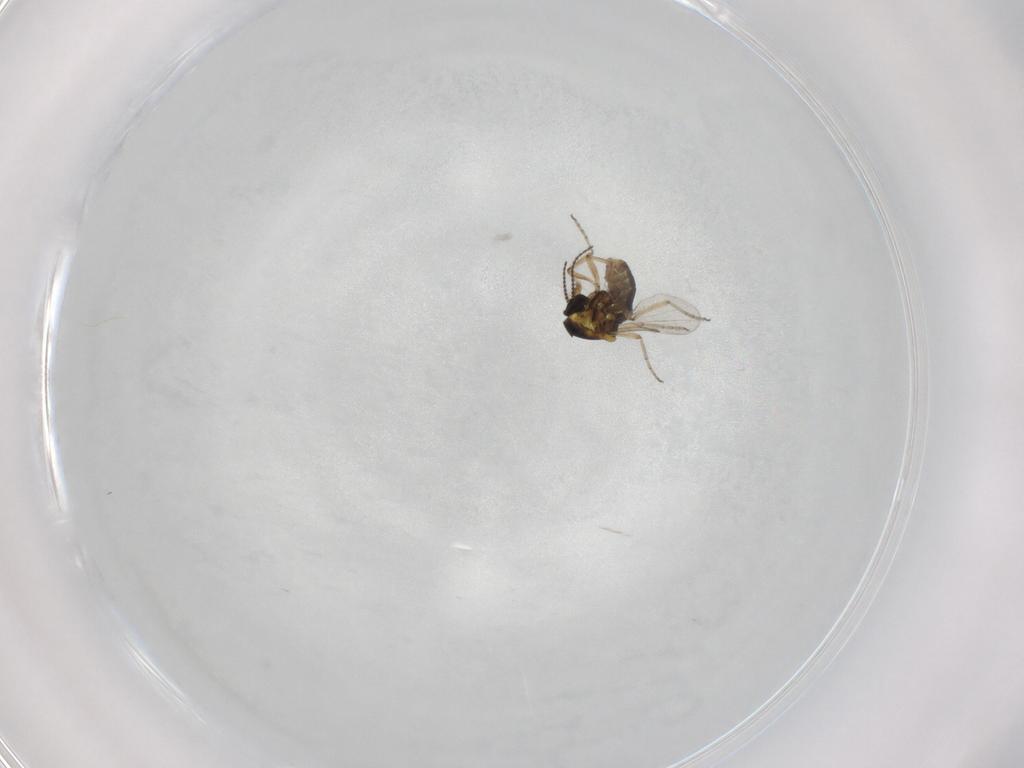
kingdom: Animalia
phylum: Arthropoda
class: Insecta
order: Diptera
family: Ceratopogonidae
